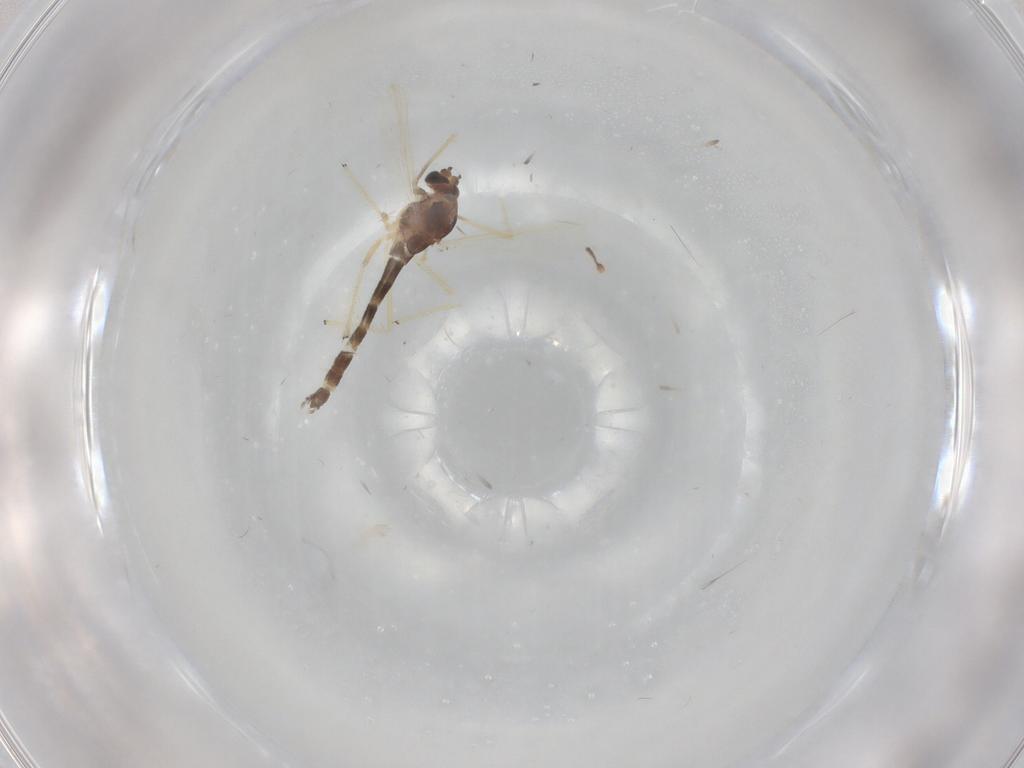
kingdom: Animalia
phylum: Arthropoda
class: Insecta
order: Diptera
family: Chironomidae
